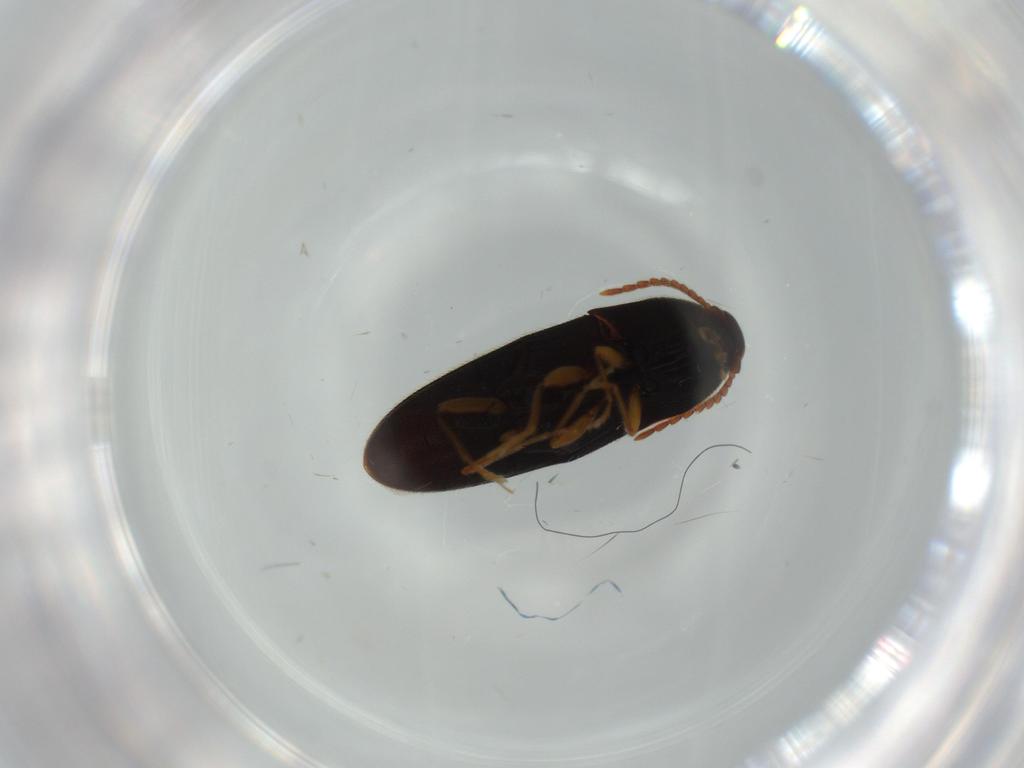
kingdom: Animalia
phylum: Arthropoda
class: Insecta
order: Coleoptera
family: Elateridae
